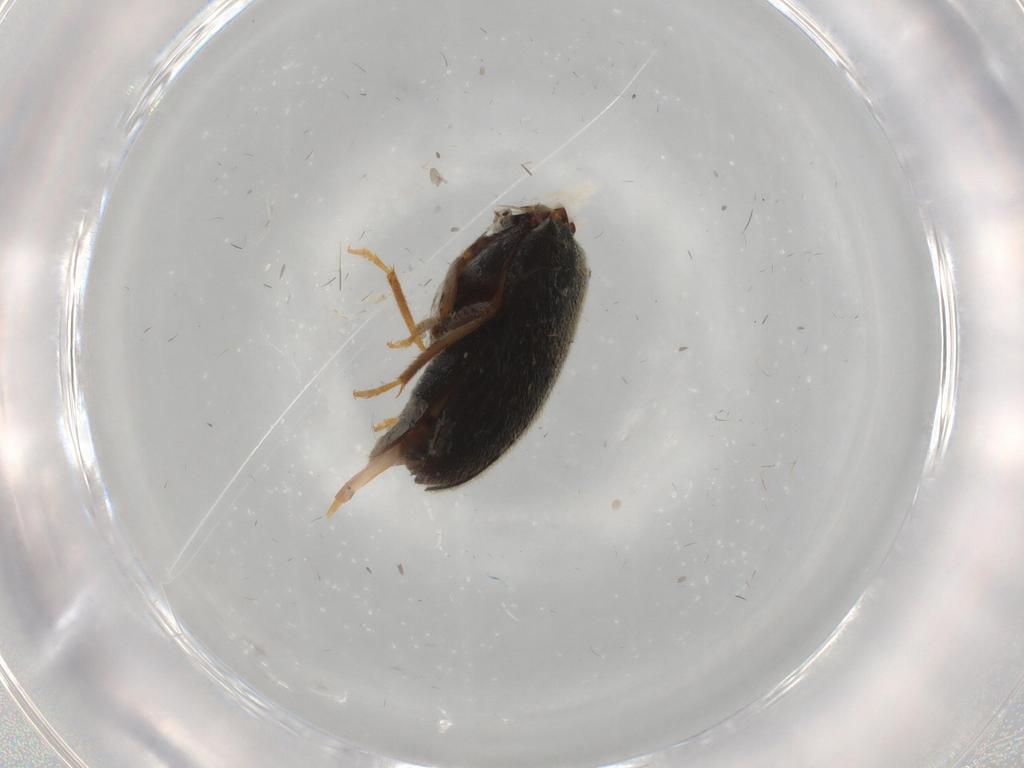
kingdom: Animalia
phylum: Arthropoda
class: Insecta
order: Coleoptera
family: Ptilodactylidae
